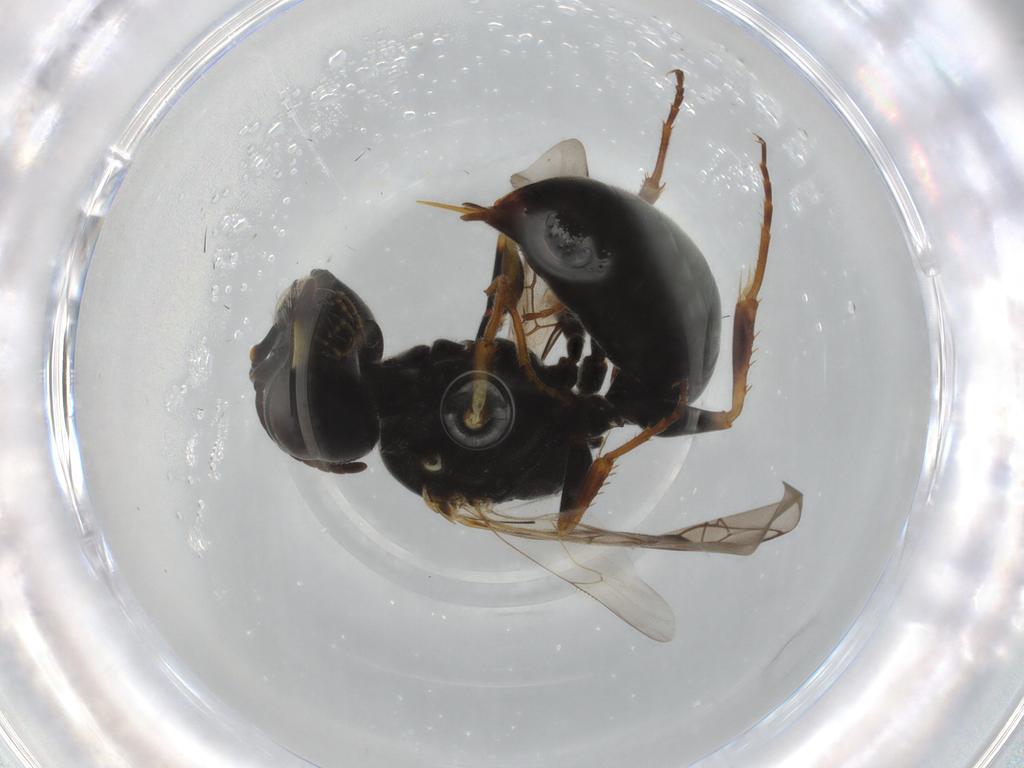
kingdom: Animalia
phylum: Arthropoda
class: Insecta
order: Hymenoptera
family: Crabronidae
